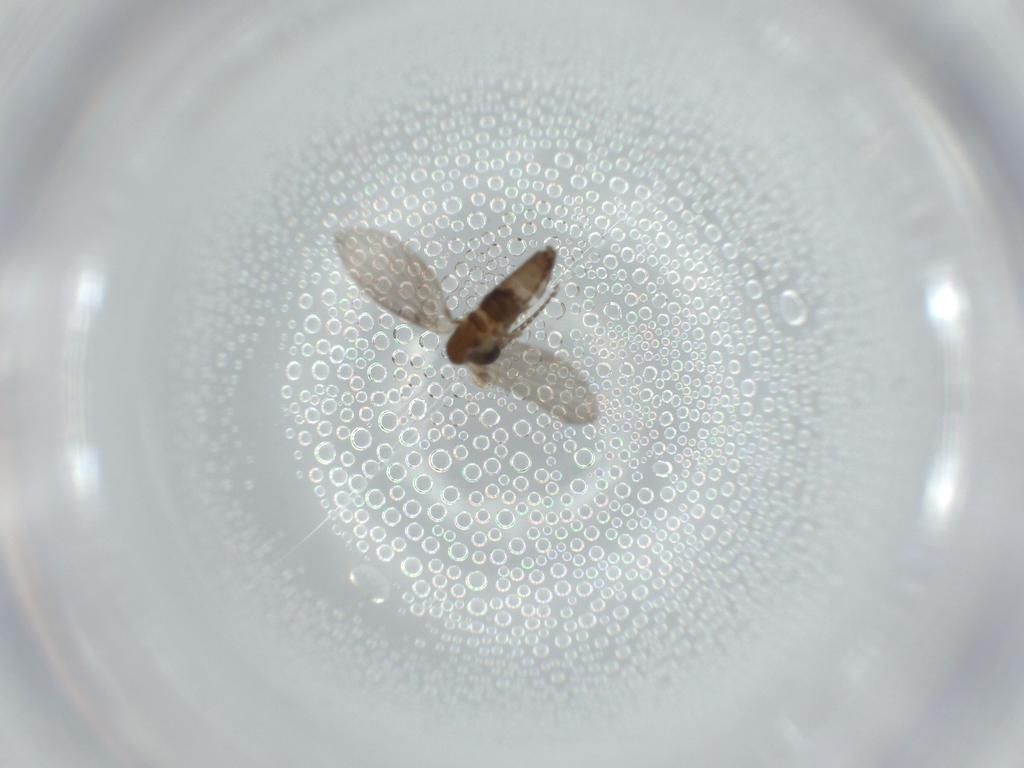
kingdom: Animalia
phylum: Arthropoda
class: Insecta
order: Diptera
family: Psychodidae
